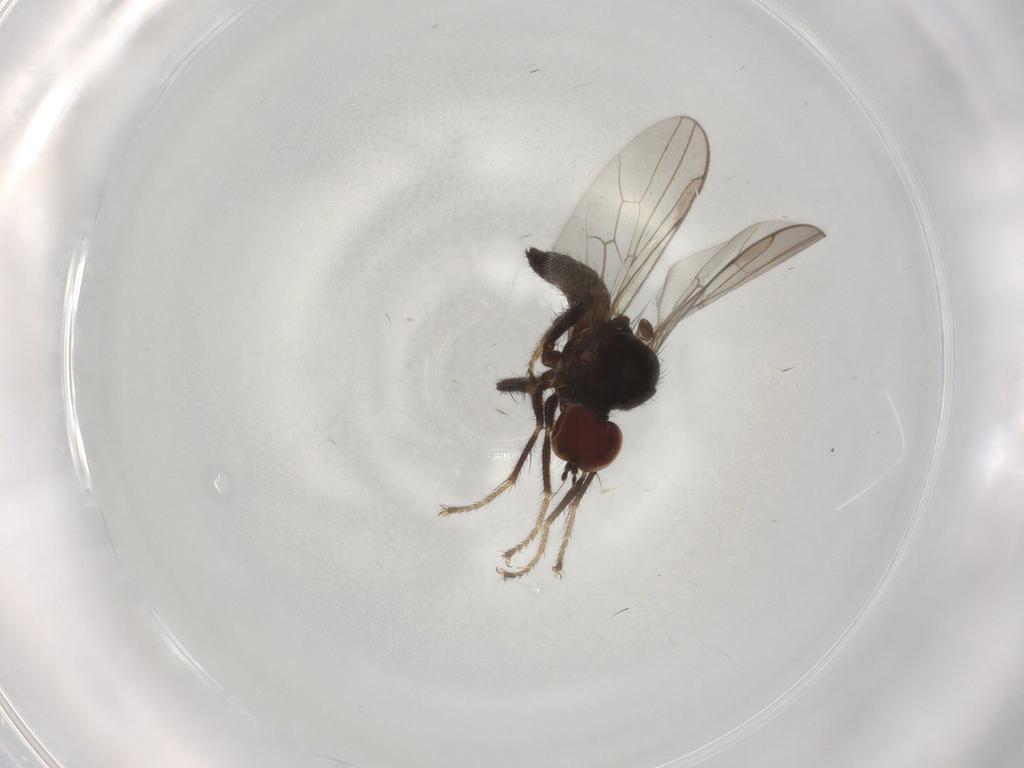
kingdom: Animalia
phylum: Arthropoda
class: Insecta
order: Diptera
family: Hybotidae
